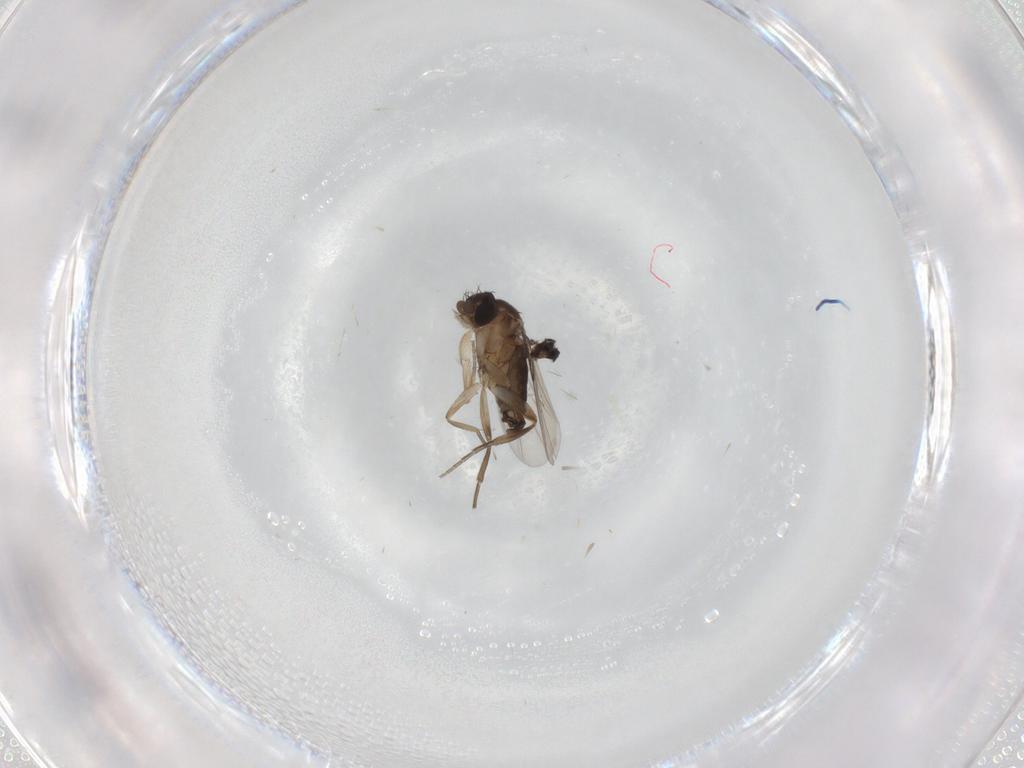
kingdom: Animalia
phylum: Arthropoda
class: Insecta
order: Diptera
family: Phoridae
